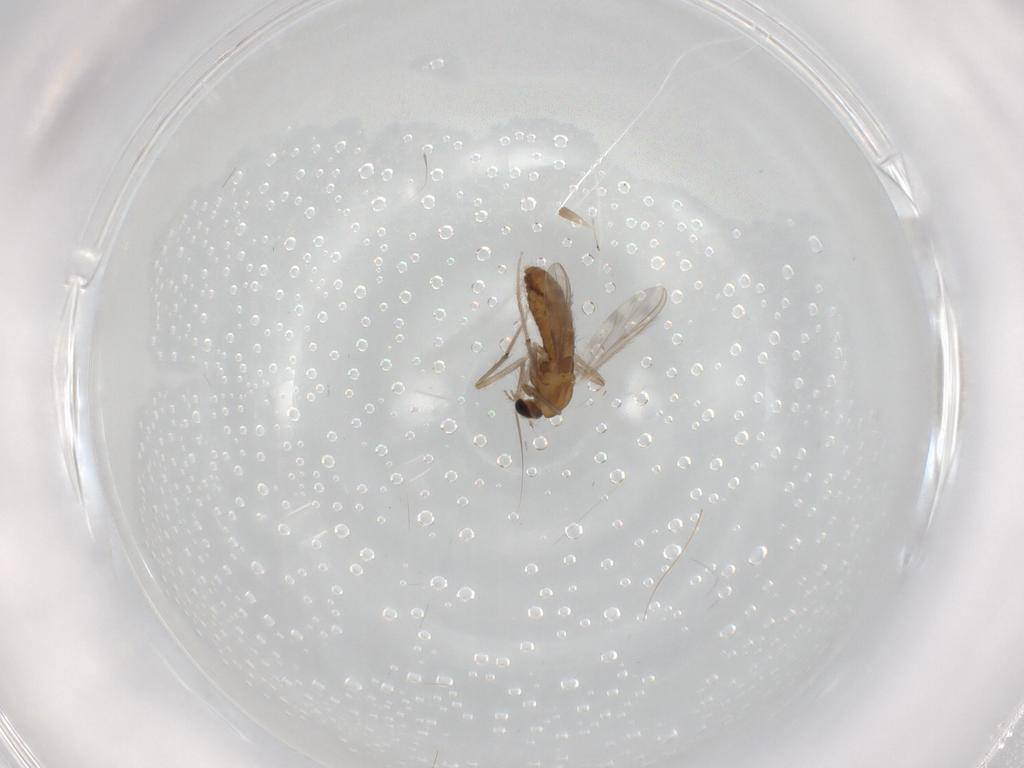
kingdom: Animalia
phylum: Arthropoda
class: Insecta
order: Diptera
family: Chironomidae
